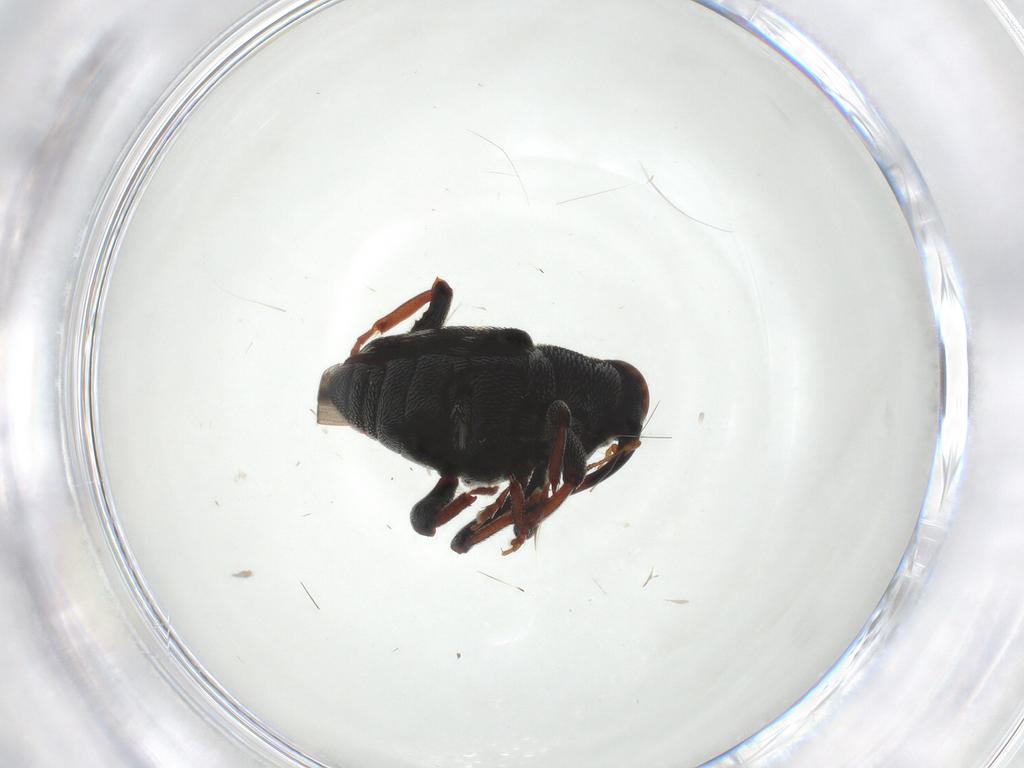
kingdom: Animalia
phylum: Arthropoda
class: Insecta
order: Coleoptera
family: Curculionidae
